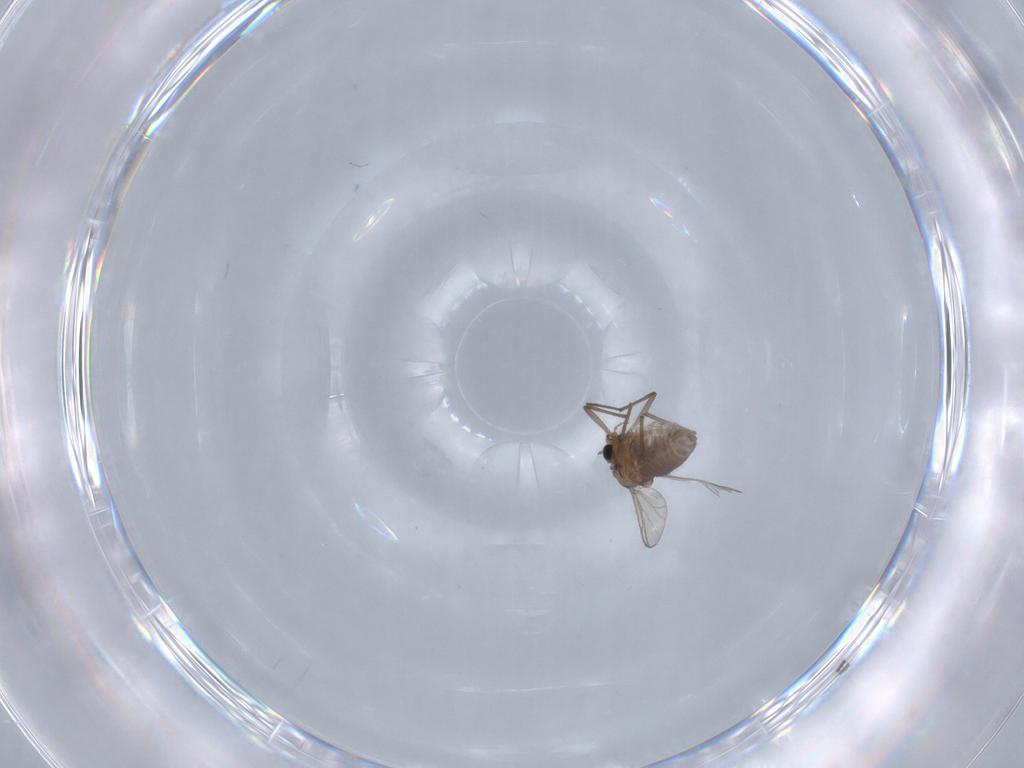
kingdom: Animalia
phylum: Arthropoda
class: Insecta
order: Diptera
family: Chironomidae
